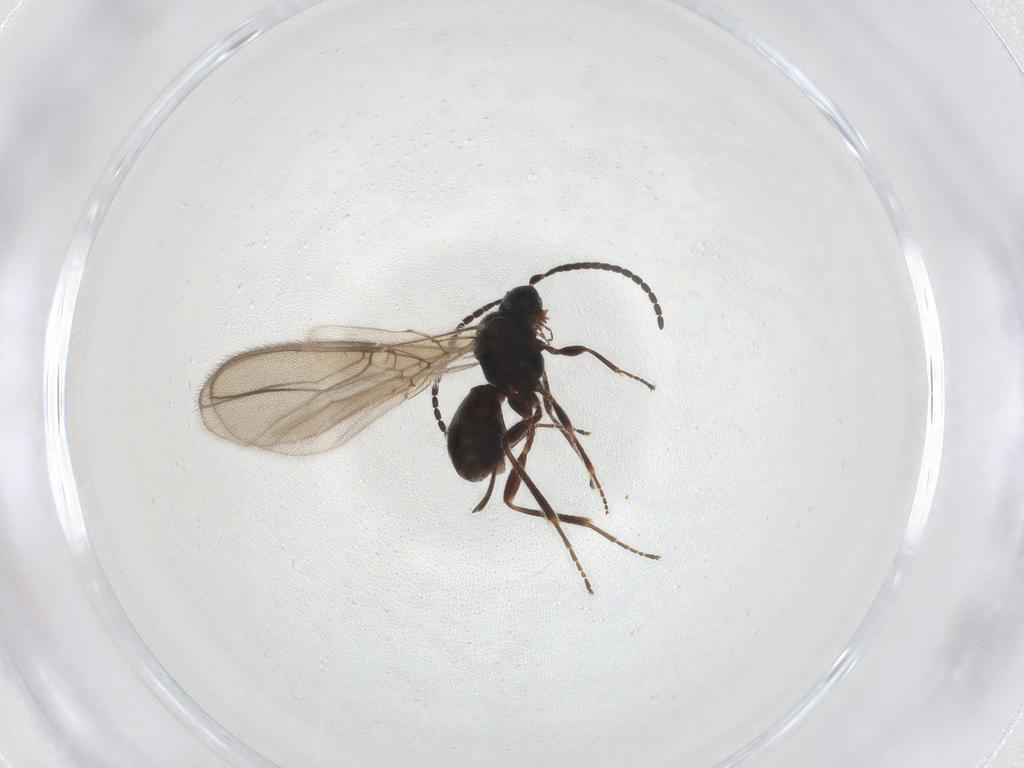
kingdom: Animalia
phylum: Arthropoda
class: Insecta
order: Hymenoptera
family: Braconidae
